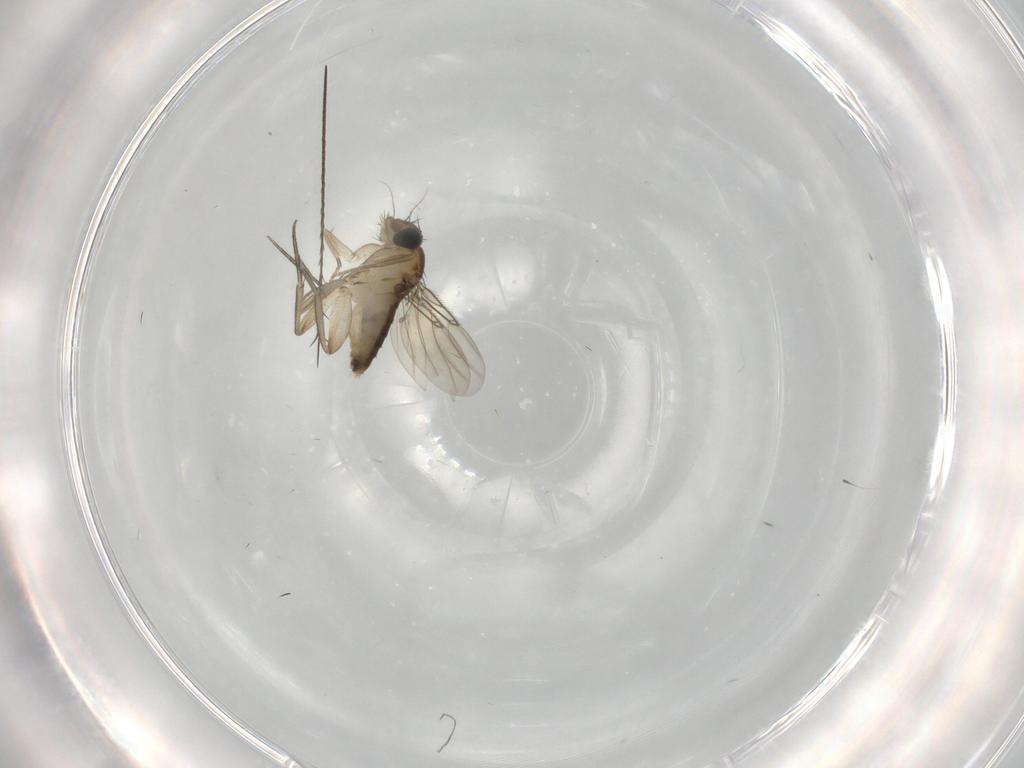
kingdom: Animalia
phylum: Arthropoda
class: Insecta
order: Diptera
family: Phoridae
